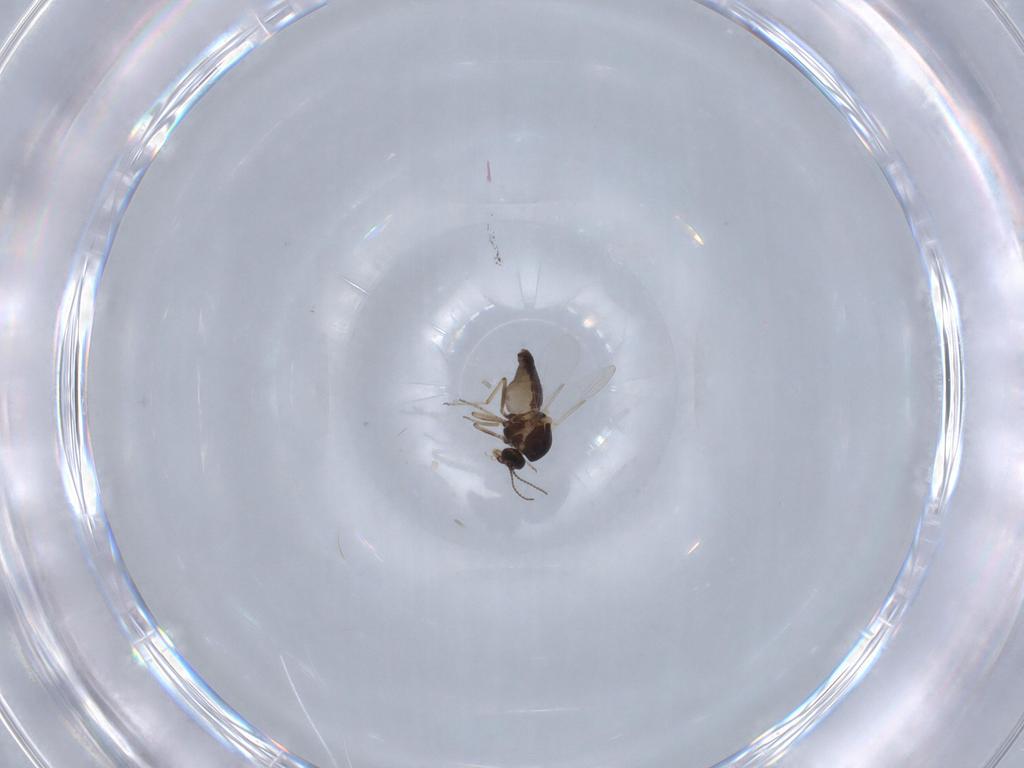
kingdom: Animalia
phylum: Arthropoda
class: Insecta
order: Diptera
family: Ceratopogonidae
